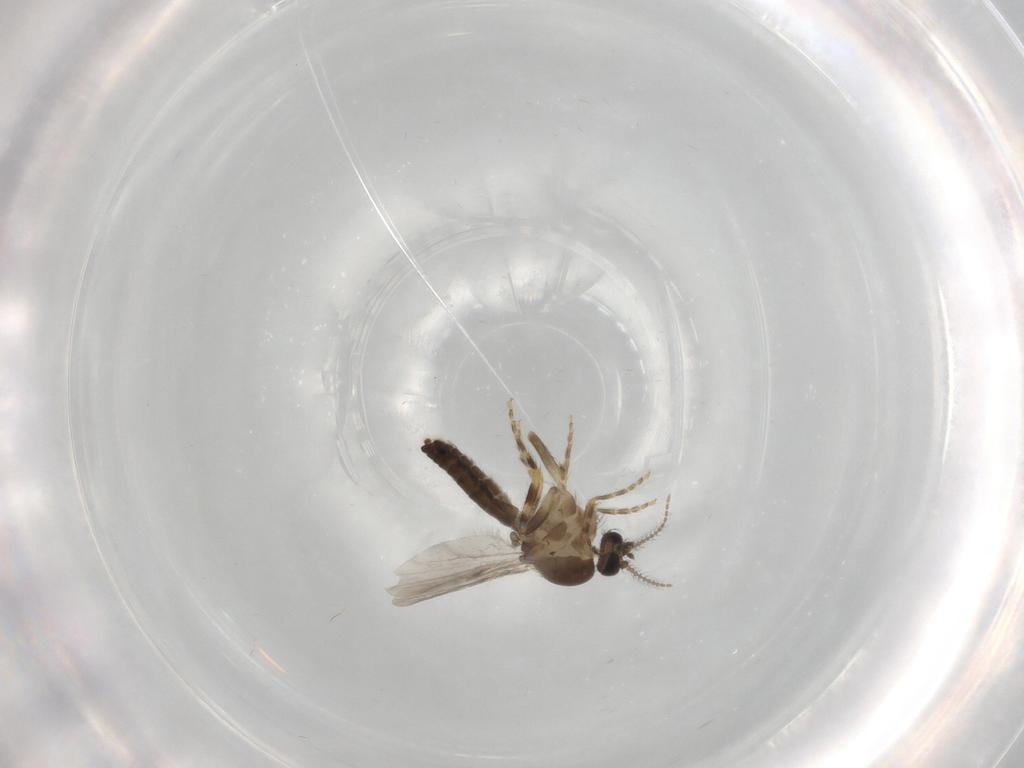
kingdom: Animalia
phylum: Arthropoda
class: Insecta
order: Diptera
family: Ceratopogonidae
